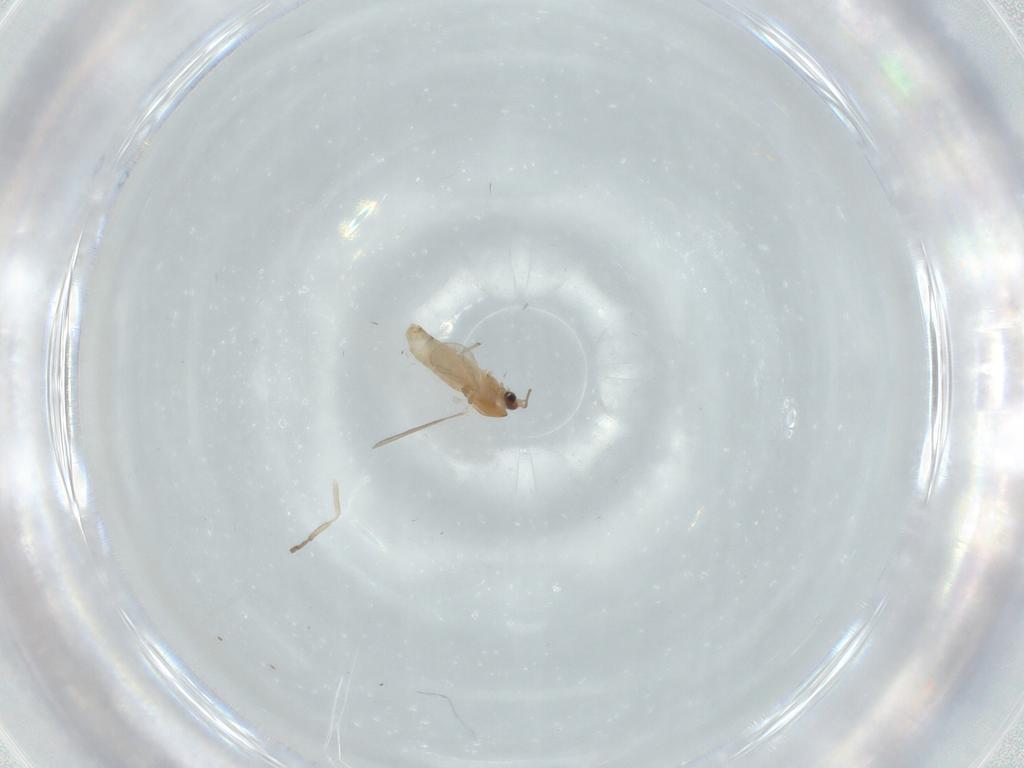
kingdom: Animalia
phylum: Arthropoda
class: Insecta
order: Diptera
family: Psychodidae
